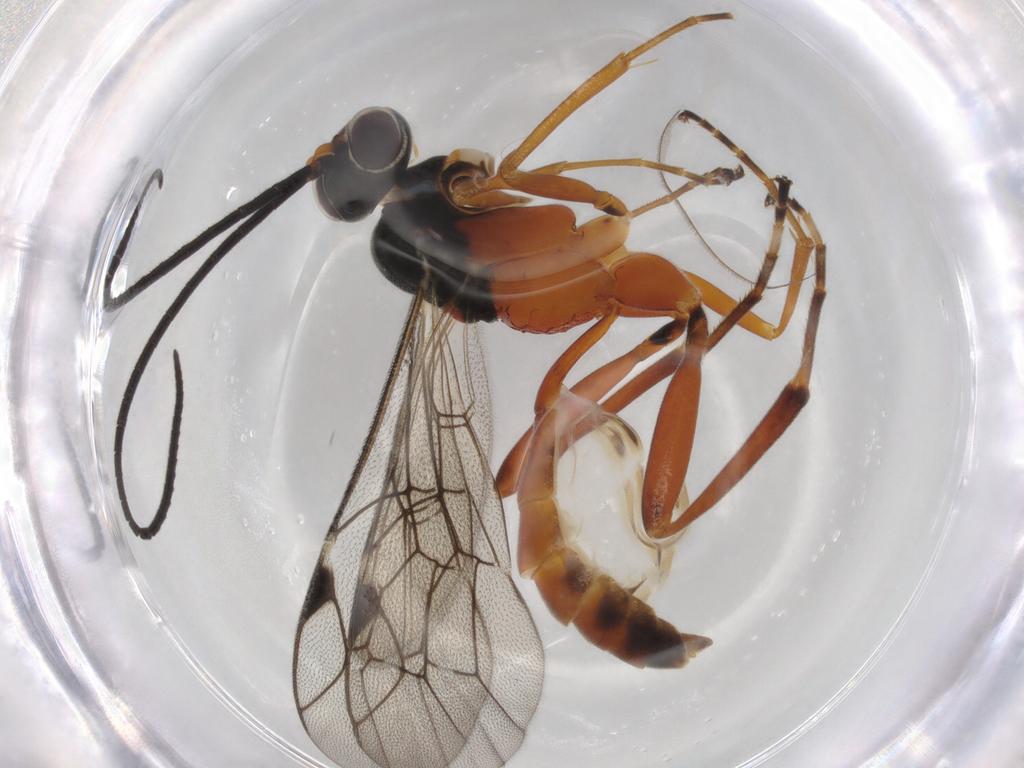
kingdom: Animalia
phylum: Arthropoda
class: Insecta
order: Hymenoptera
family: Ichneumonidae
